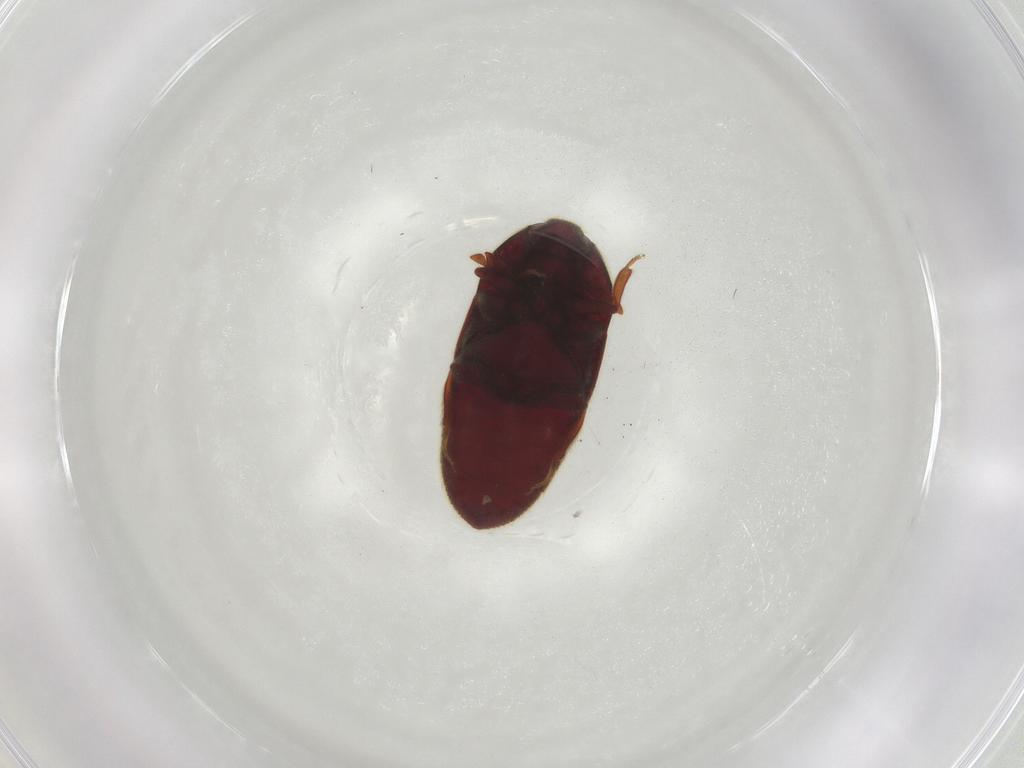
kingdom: Animalia
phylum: Arthropoda
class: Insecta
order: Coleoptera
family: Throscidae
